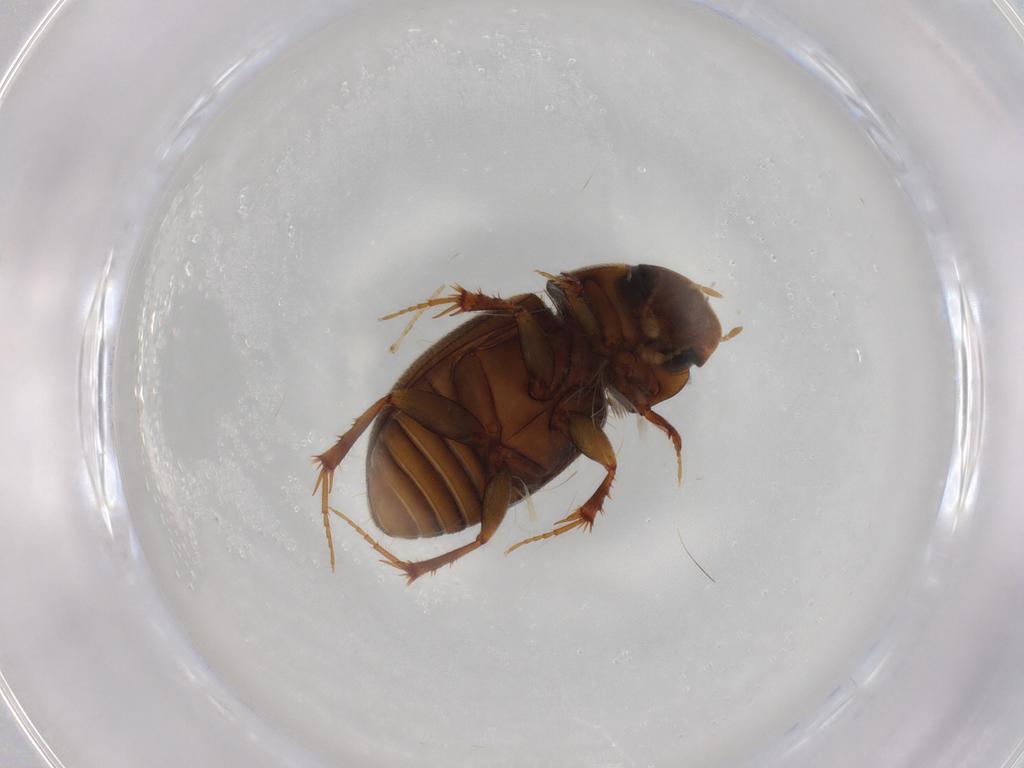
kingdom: Animalia
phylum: Arthropoda
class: Insecta
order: Coleoptera
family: Scarabaeidae
